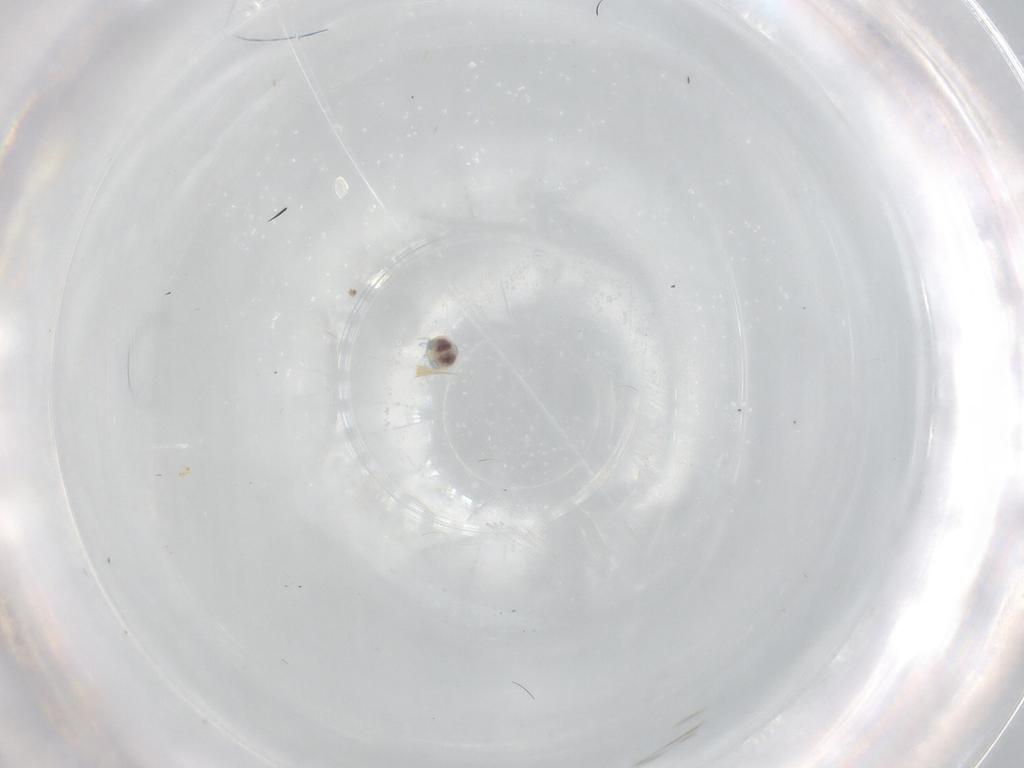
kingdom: Animalia
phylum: Arthropoda
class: Arachnida
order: Trombidiformes
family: Unionicolidae
